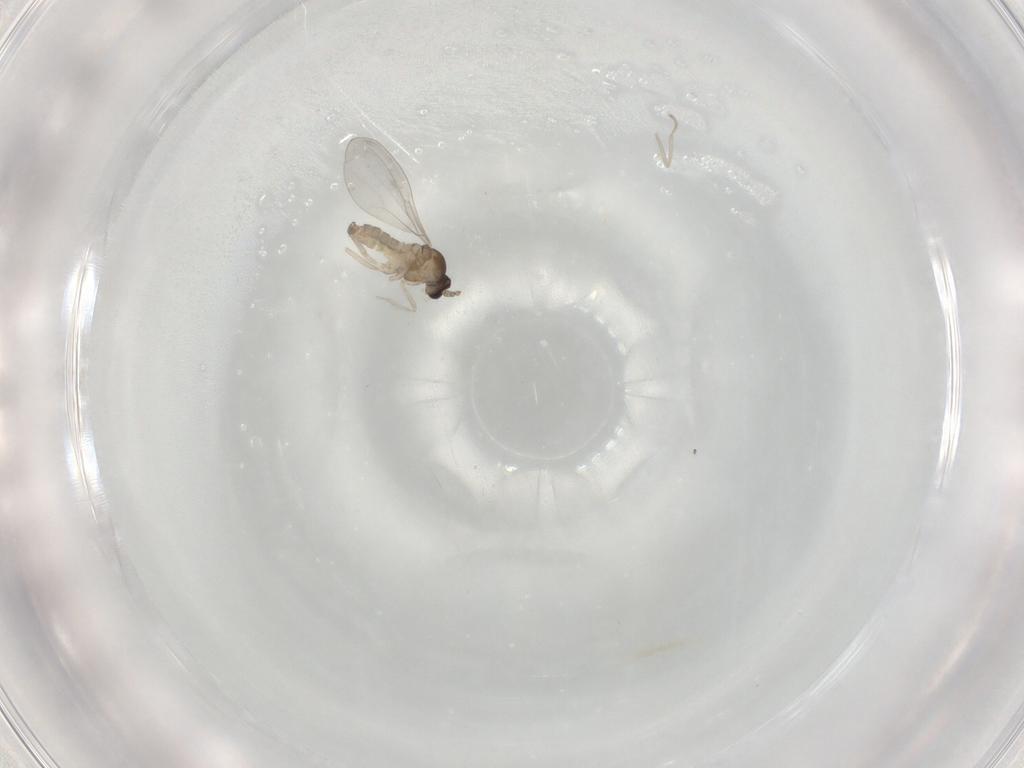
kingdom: Animalia
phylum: Arthropoda
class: Insecta
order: Diptera
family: Cecidomyiidae
